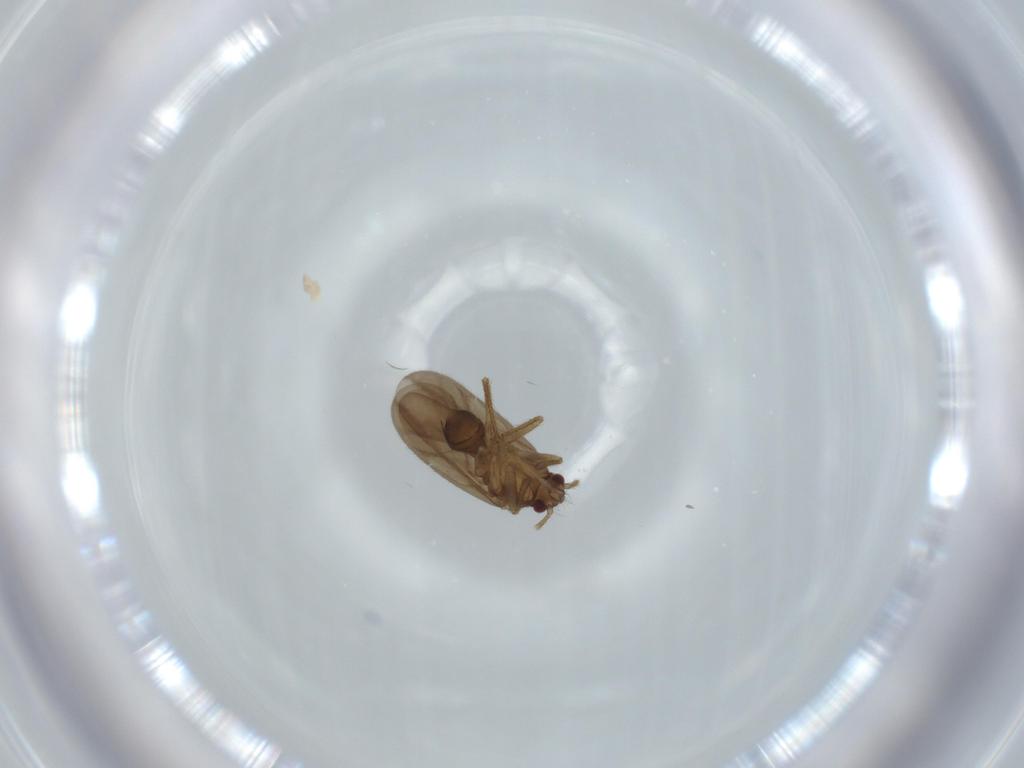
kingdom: Animalia
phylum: Arthropoda
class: Insecta
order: Hemiptera
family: Ceratocombidae
